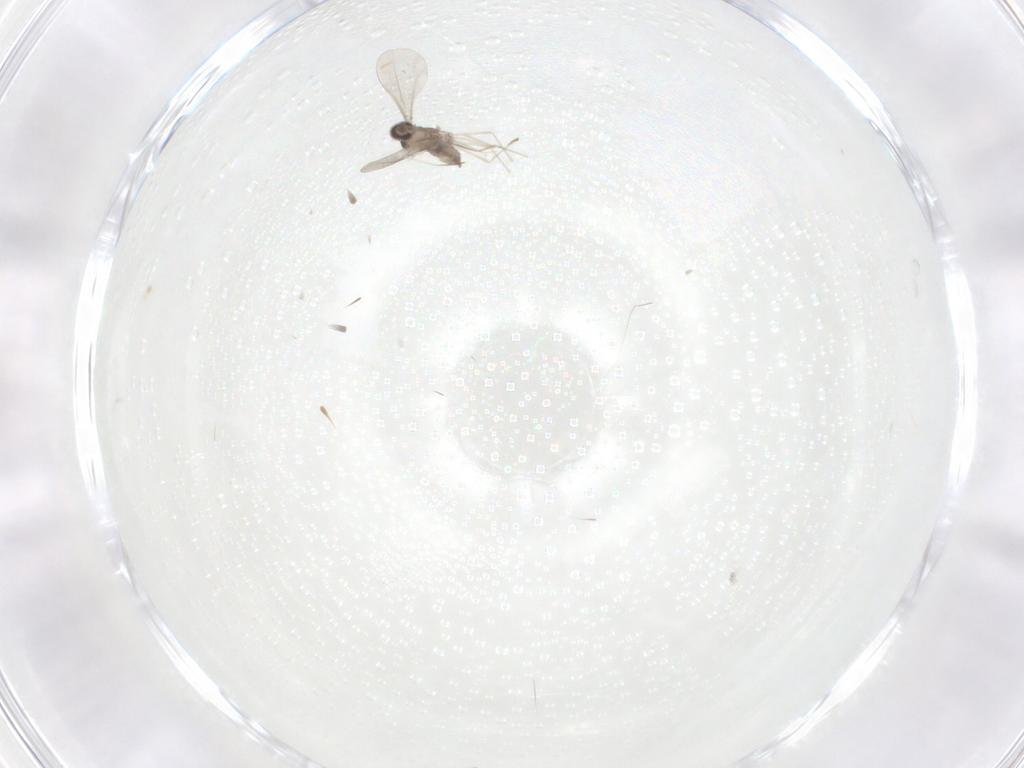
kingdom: Animalia
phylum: Arthropoda
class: Insecta
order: Diptera
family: Cecidomyiidae
